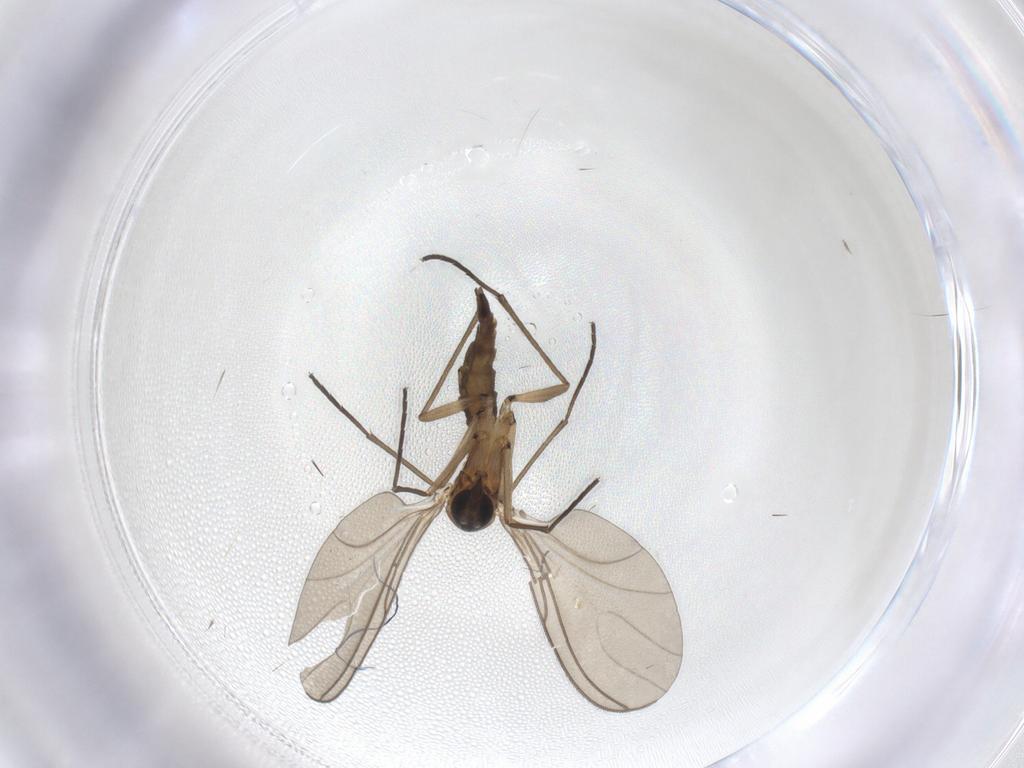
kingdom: Animalia
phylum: Arthropoda
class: Insecta
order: Diptera
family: Sciaridae
